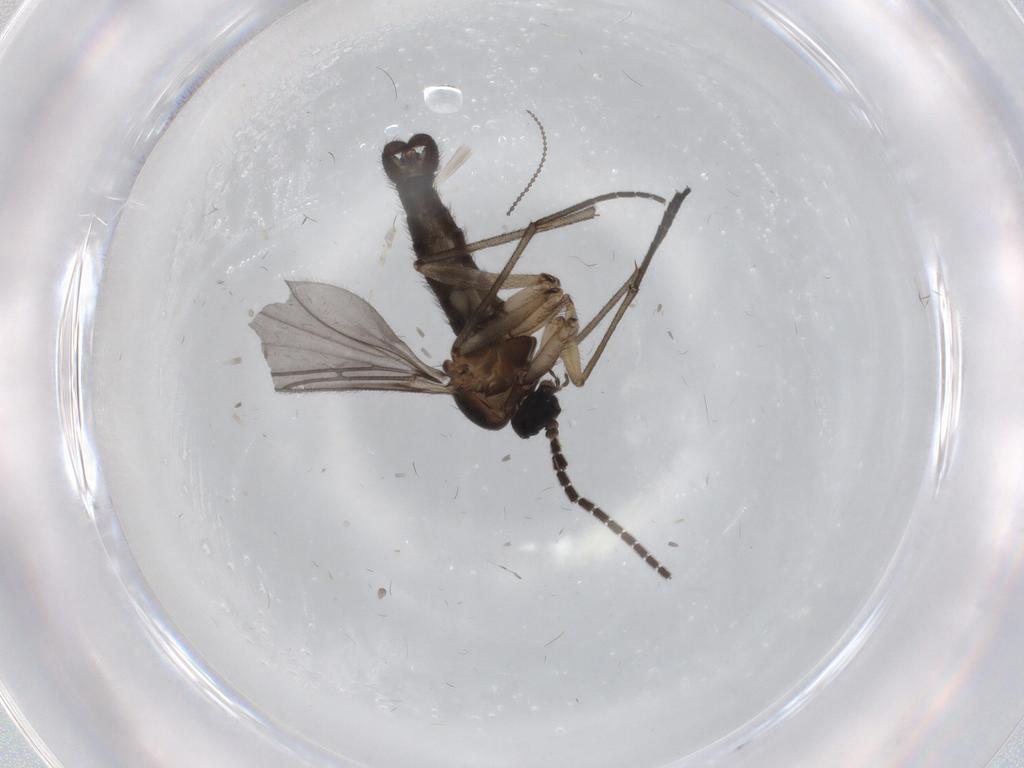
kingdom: Animalia
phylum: Arthropoda
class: Insecta
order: Diptera
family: Sciaridae
